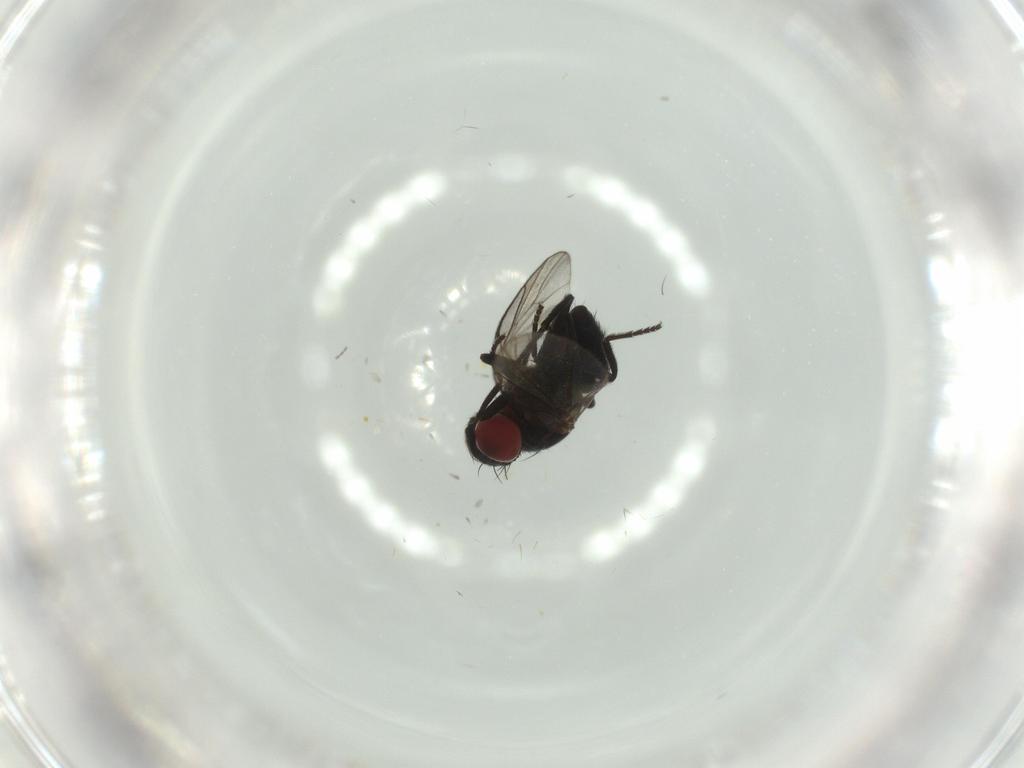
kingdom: Animalia
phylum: Arthropoda
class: Insecta
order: Diptera
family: Agromyzidae
